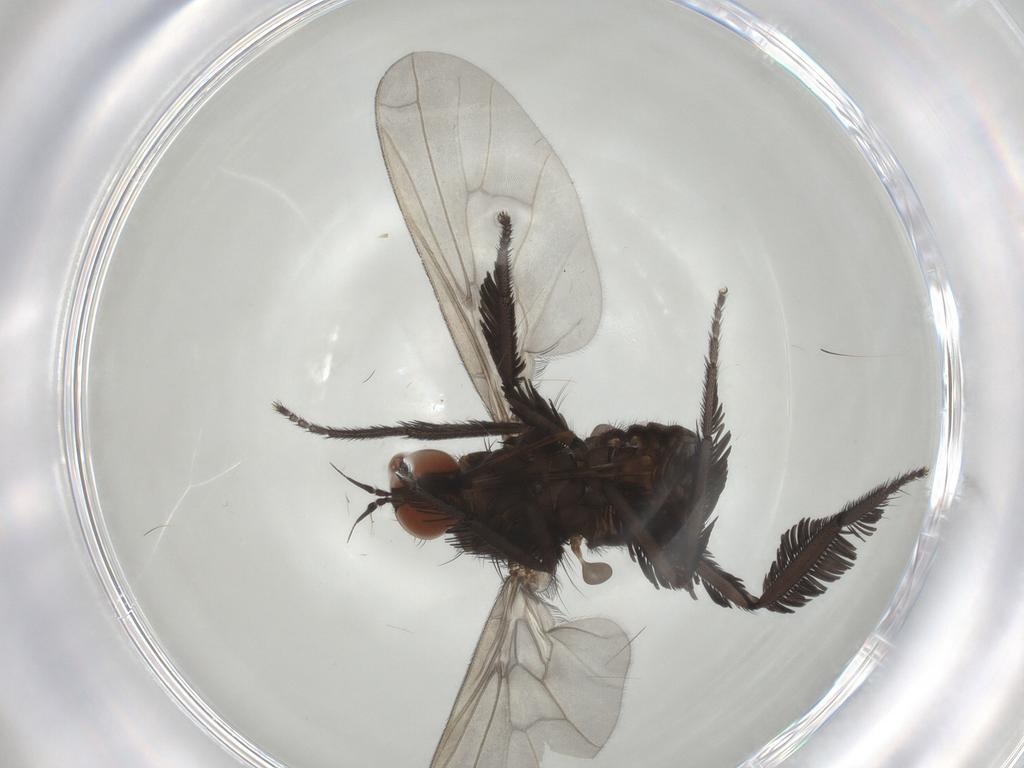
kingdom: Animalia
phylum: Arthropoda
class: Insecta
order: Diptera
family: Empididae
